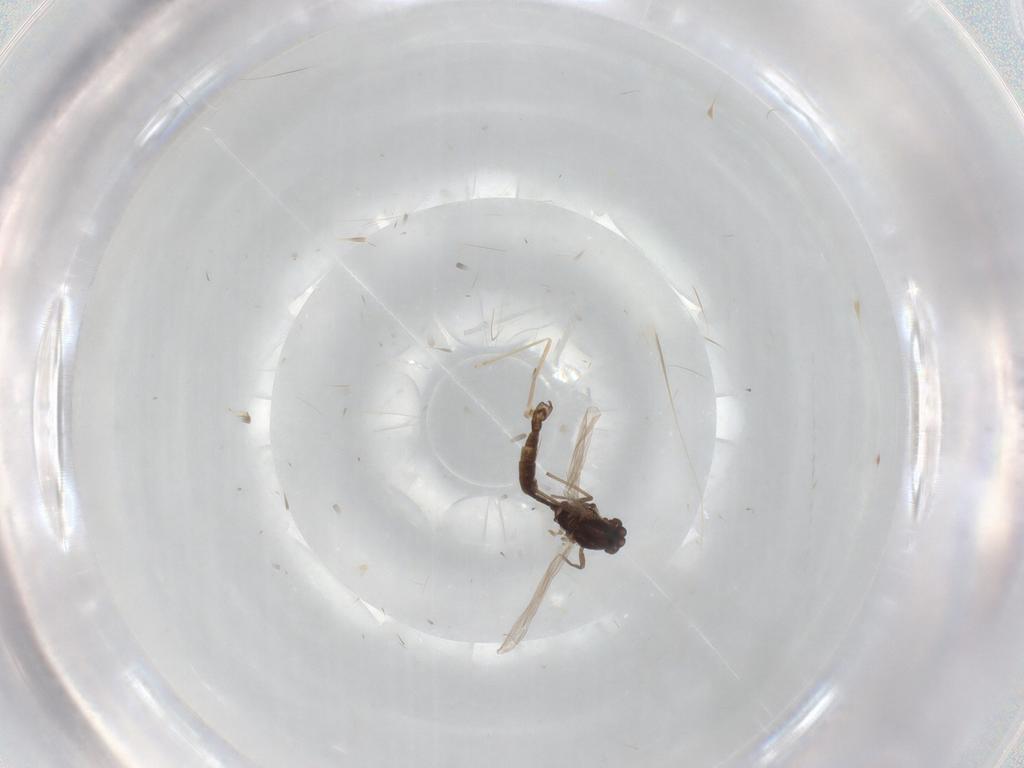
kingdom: Animalia
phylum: Arthropoda
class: Insecta
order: Diptera
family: Chironomidae
